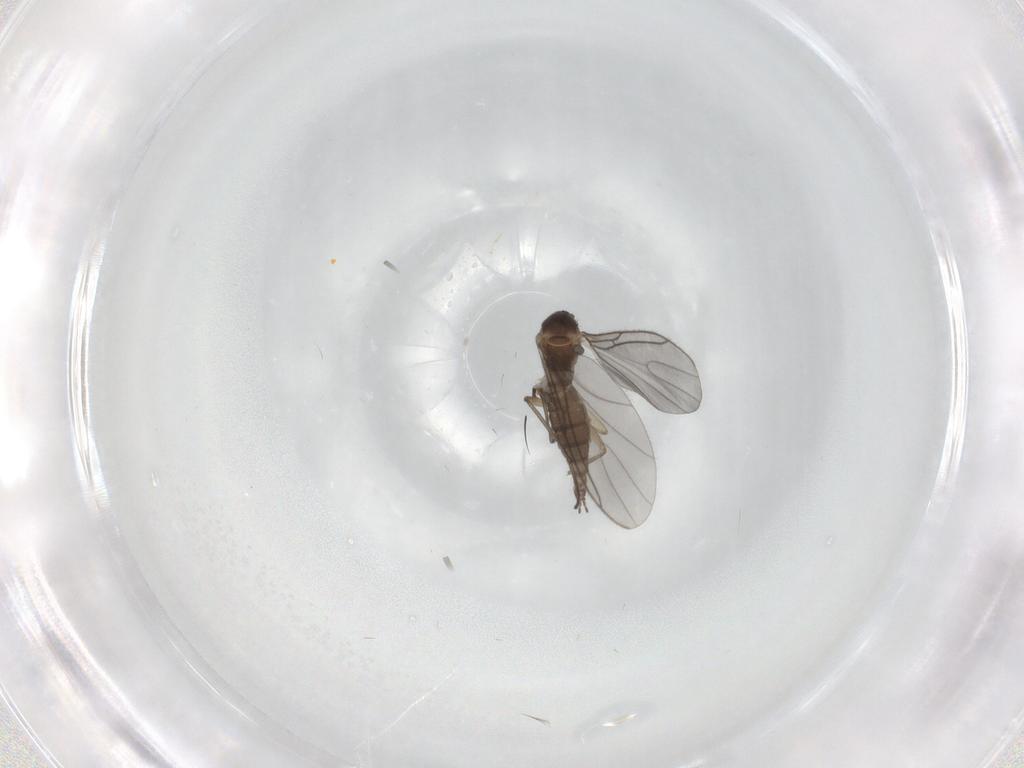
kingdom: Animalia
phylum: Arthropoda
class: Insecta
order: Diptera
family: Sciaridae
